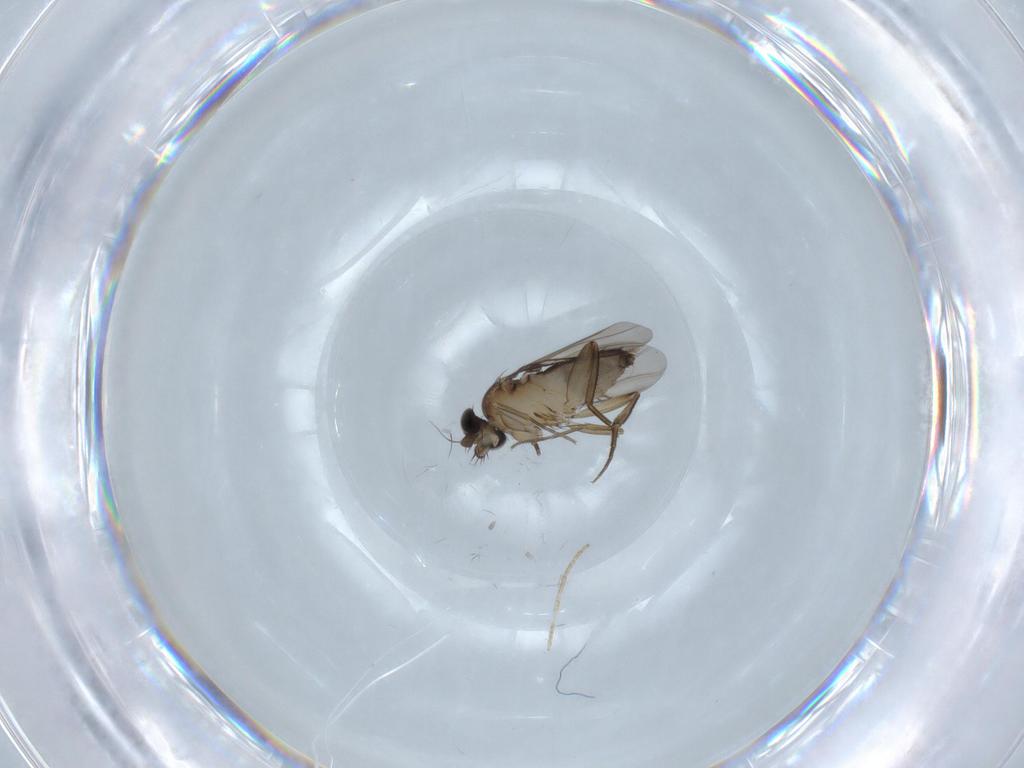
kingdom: Animalia
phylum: Arthropoda
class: Insecta
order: Diptera
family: Phoridae
